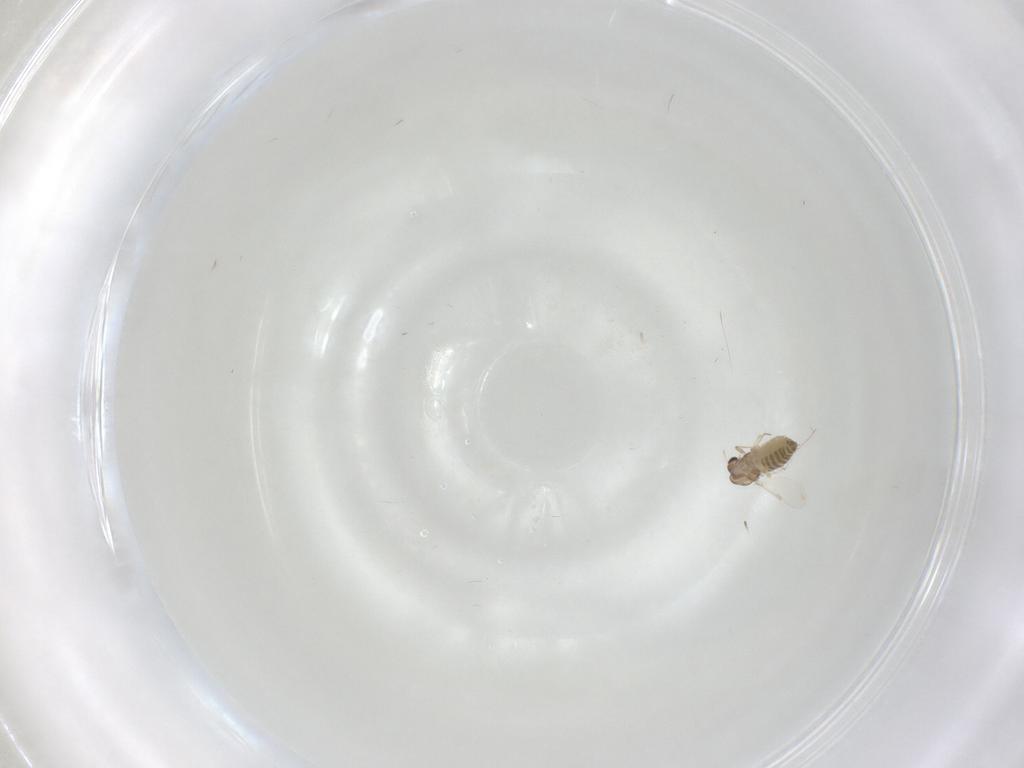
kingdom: Animalia
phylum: Arthropoda
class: Insecta
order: Diptera
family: Chironomidae
